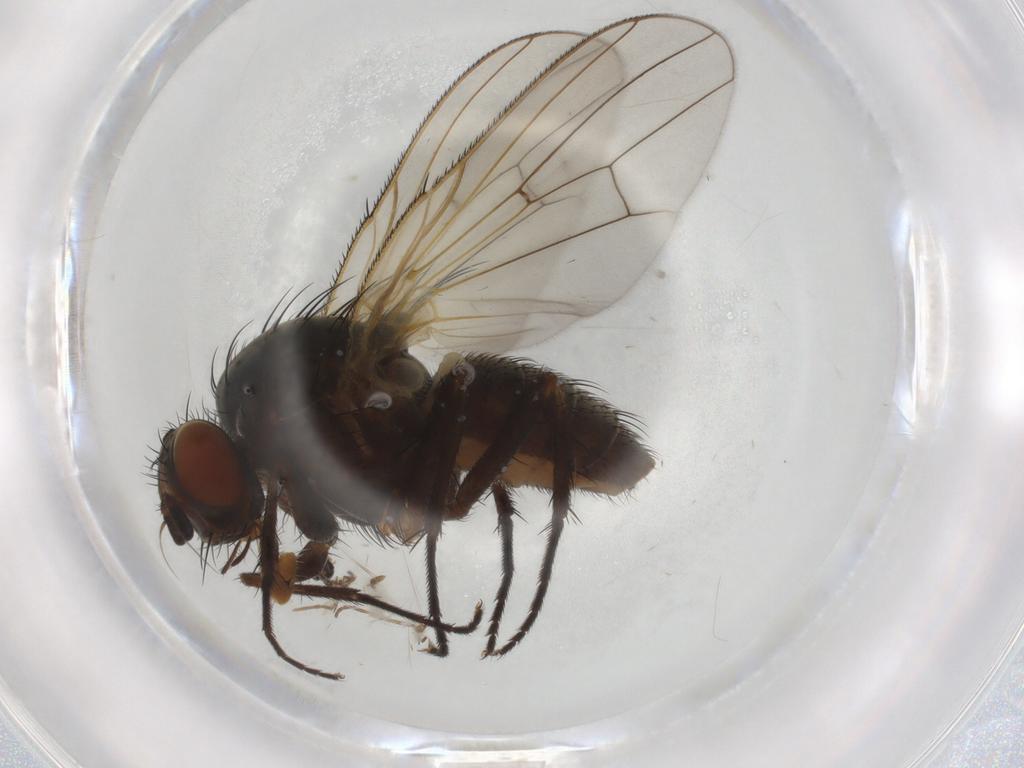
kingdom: Animalia
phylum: Arthropoda
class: Insecta
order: Diptera
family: Anthomyiidae
